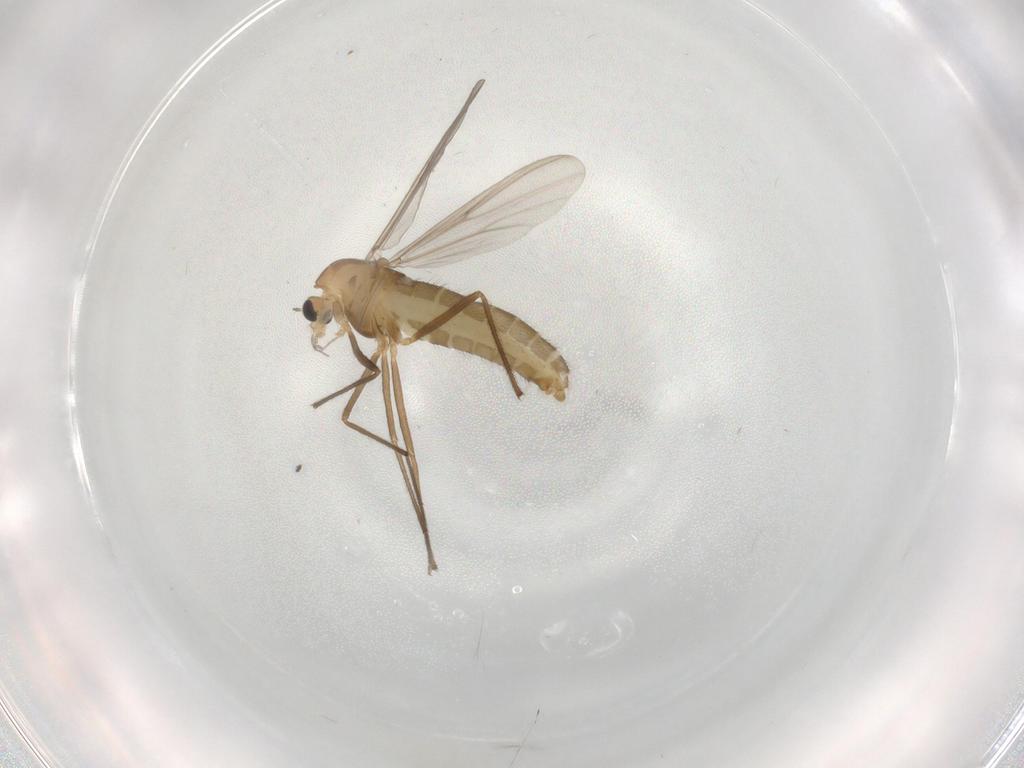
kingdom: Animalia
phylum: Arthropoda
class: Insecta
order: Diptera
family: Chironomidae
